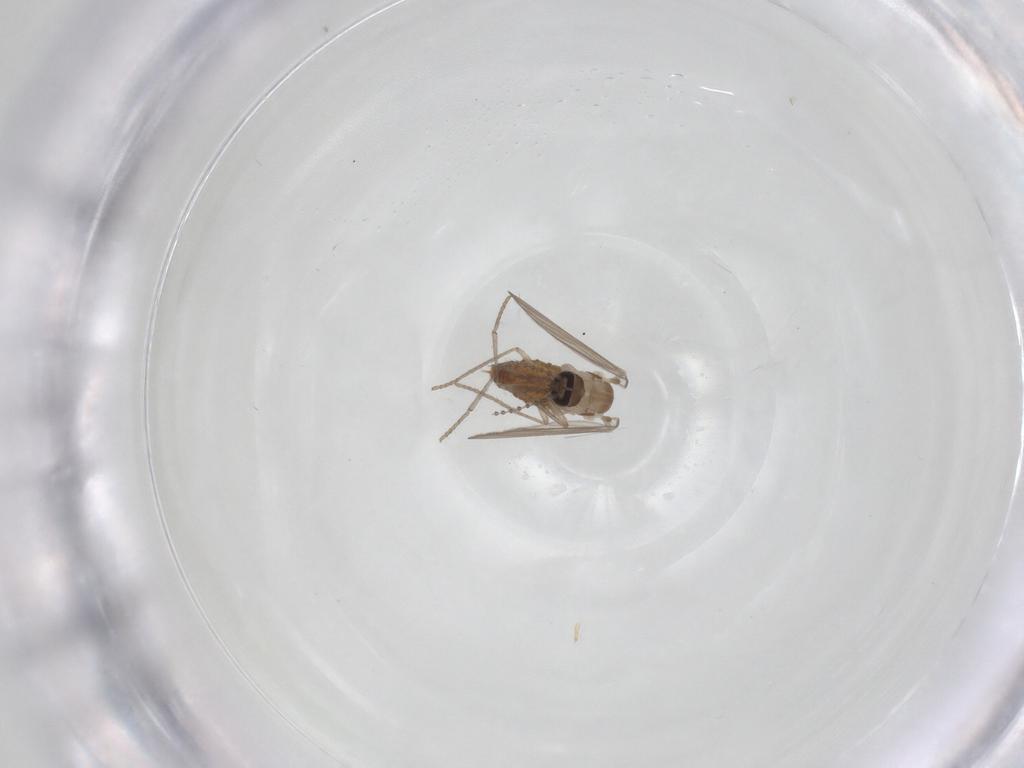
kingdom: Animalia
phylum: Arthropoda
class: Insecta
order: Diptera
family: Psychodidae
